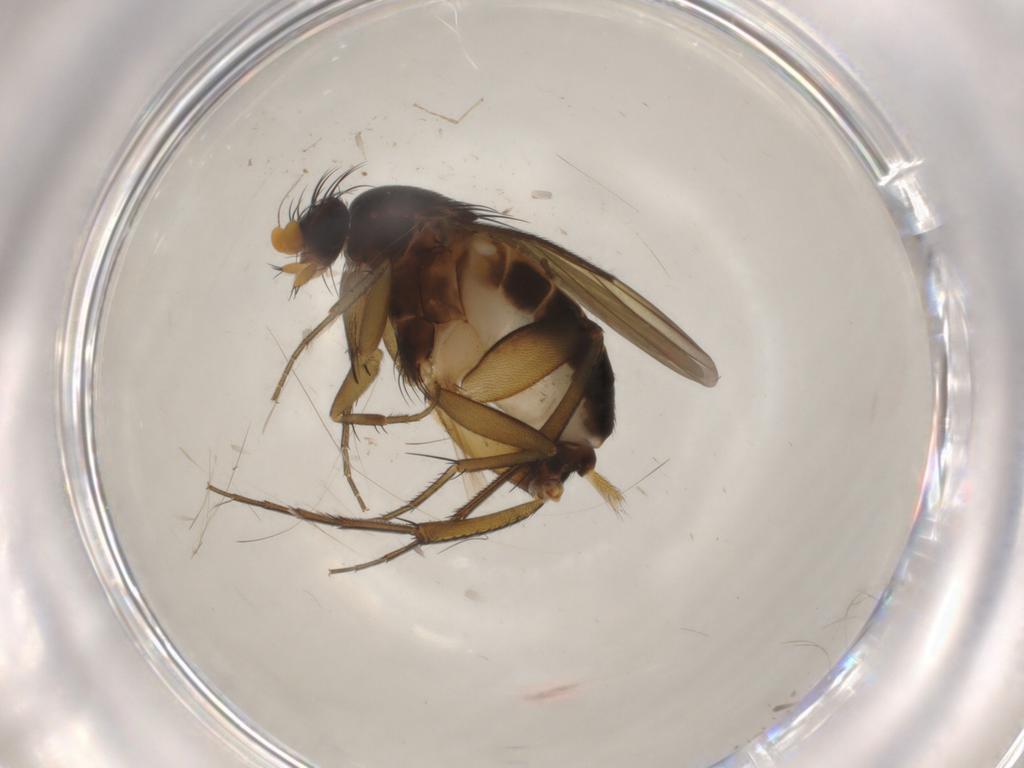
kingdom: Animalia
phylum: Arthropoda
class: Insecta
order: Diptera
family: Phoridae
